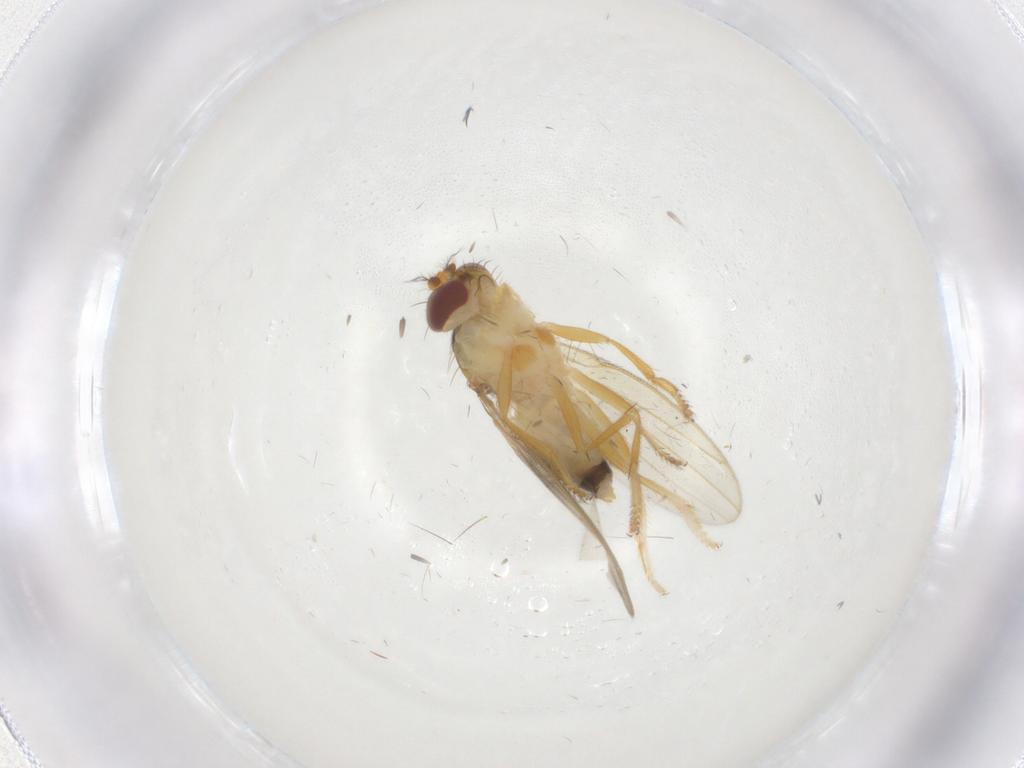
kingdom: Animalia
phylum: Arthropoda
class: Insecta
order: Diptera
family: Periscelididae
